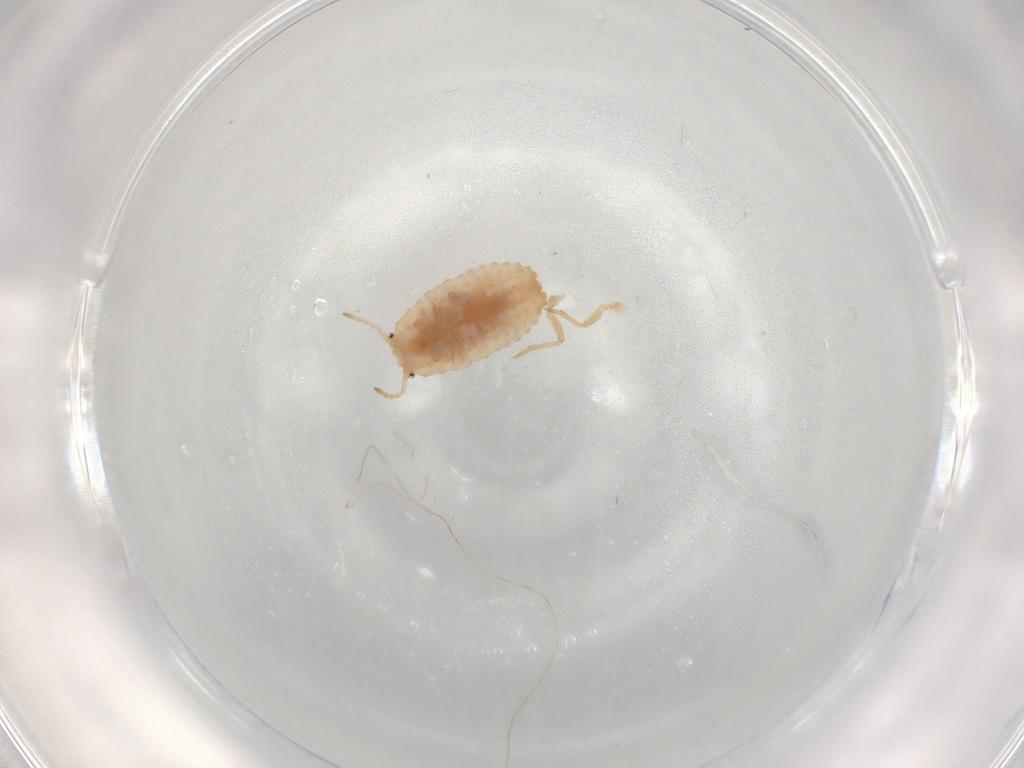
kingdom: Animalia
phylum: Arthropoda
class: Insecta
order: Hemiptera
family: Coccoidea_incertae_sedis
